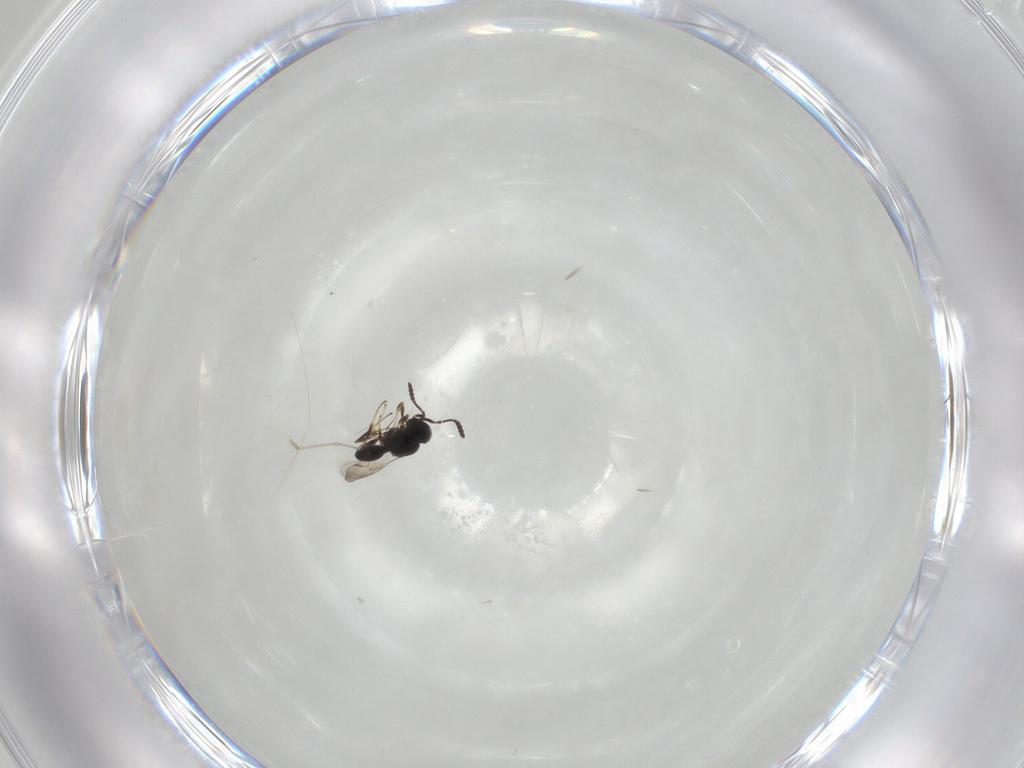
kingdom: Animalia
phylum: Arthropoda
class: Insecta
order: Hymenoptera
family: Scelionidae
